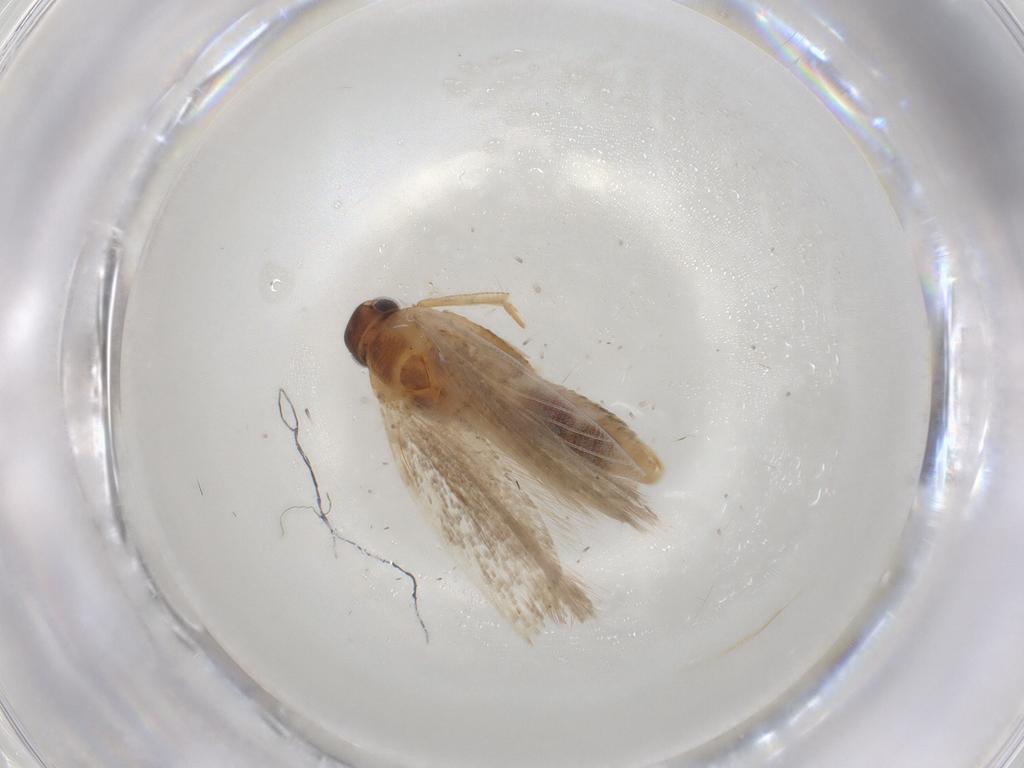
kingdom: Animalia
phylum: Arthropoda
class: Insecta
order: Lepidoptera
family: Gelechiidae
